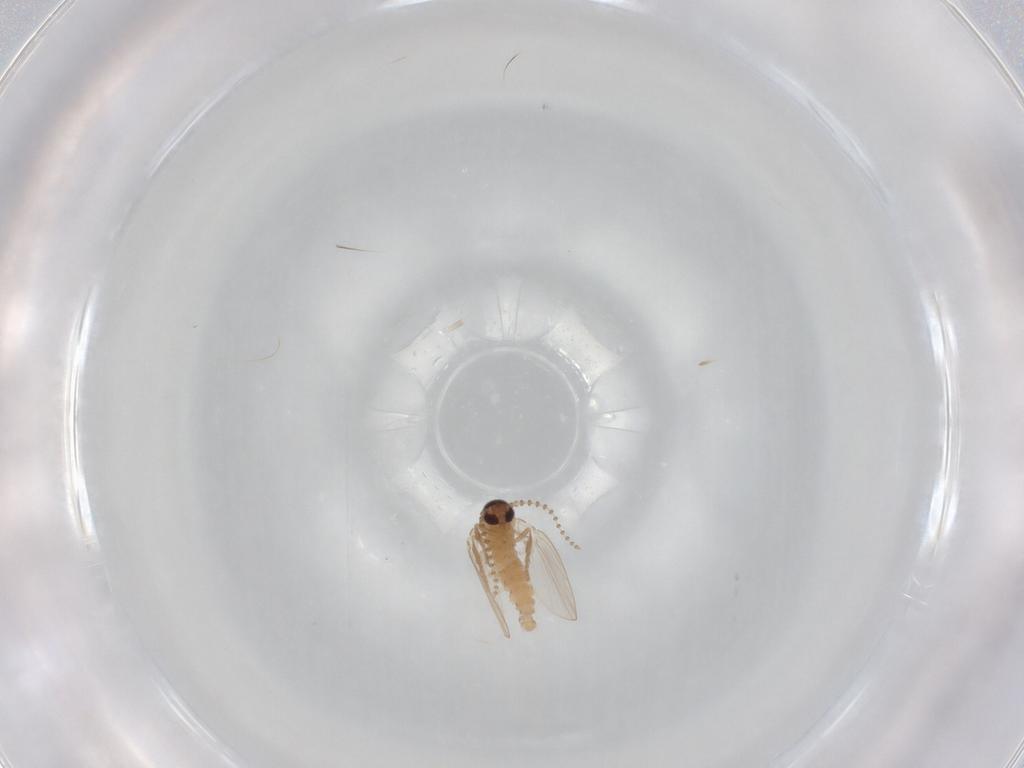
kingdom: Animalia
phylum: Arthropoda
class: Insecta
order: Diptera
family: Psychodidae
